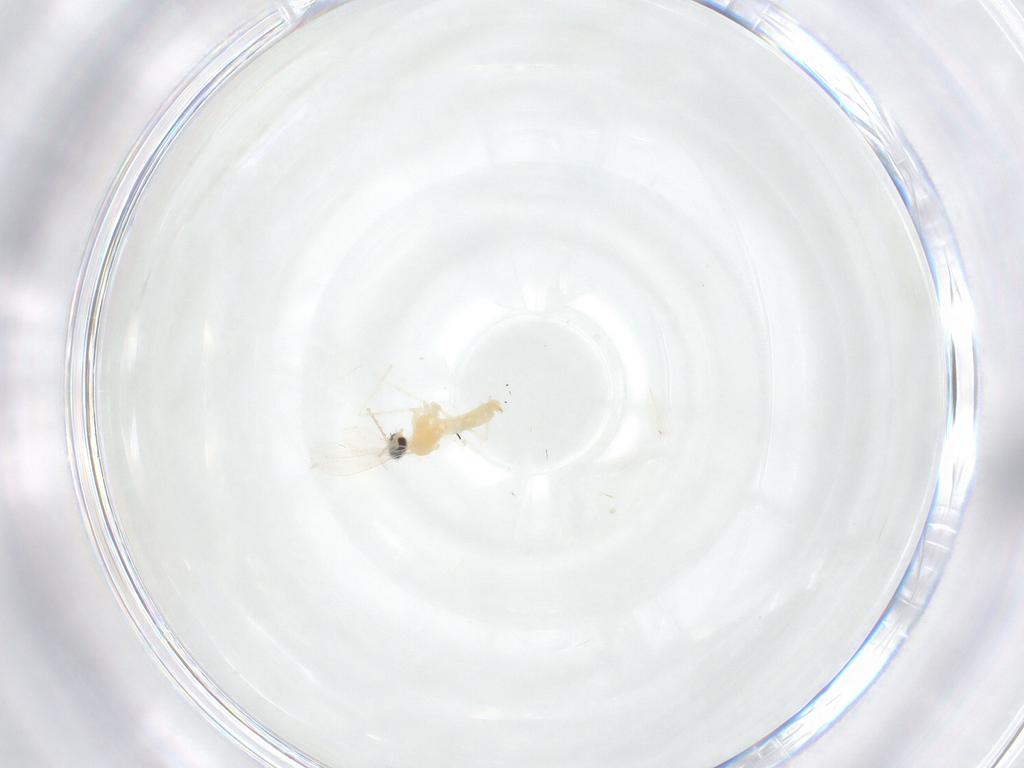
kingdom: Animalia
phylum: Arthropoda
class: Insecta
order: Diptera
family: Cecidomyiidae
